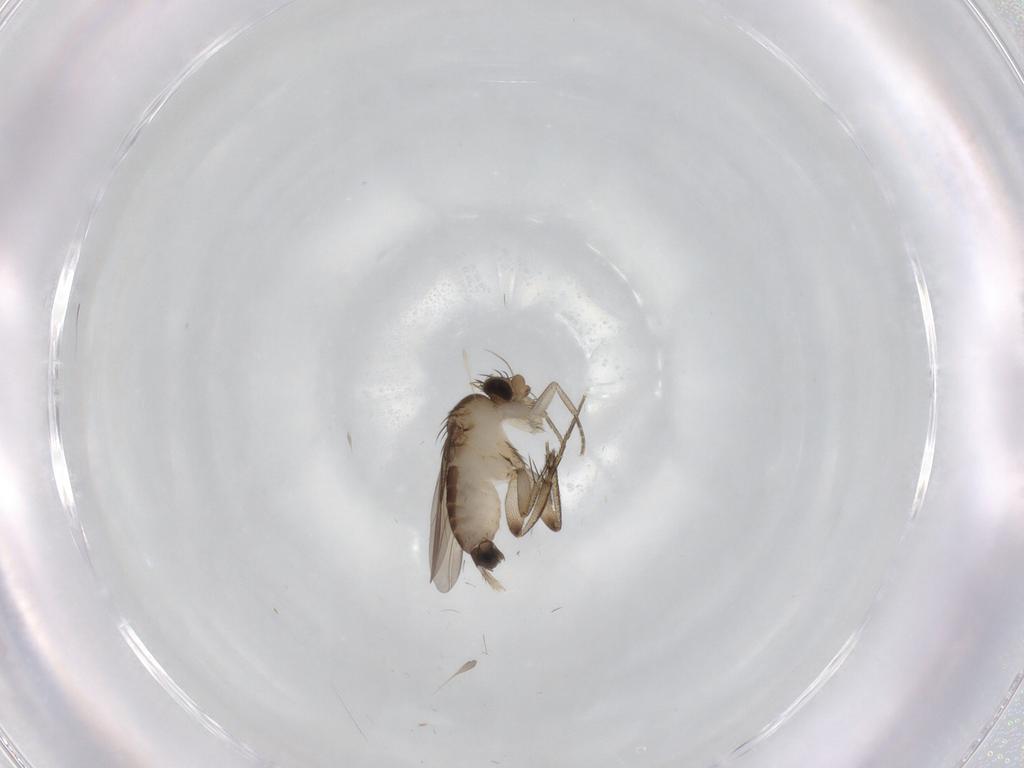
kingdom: Animalia
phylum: Arthropoda
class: Insecta
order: Diptera
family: Phoridae
